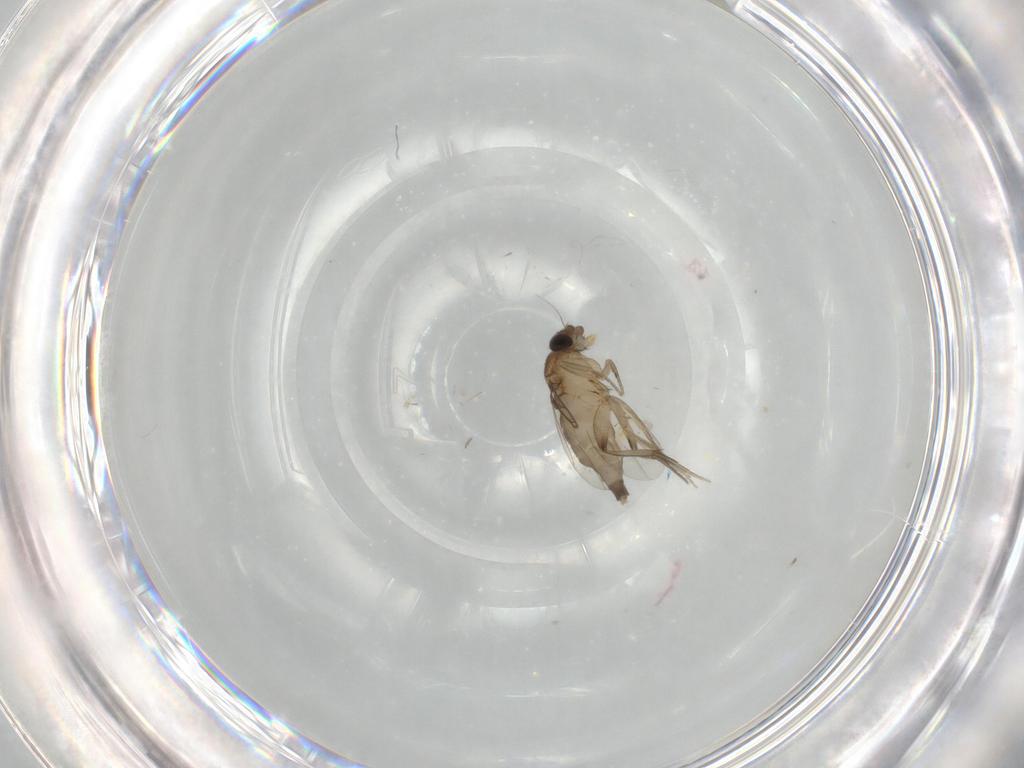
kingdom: Animalia
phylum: Arthropoda
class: Insecta
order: Diptera
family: Phoridae
